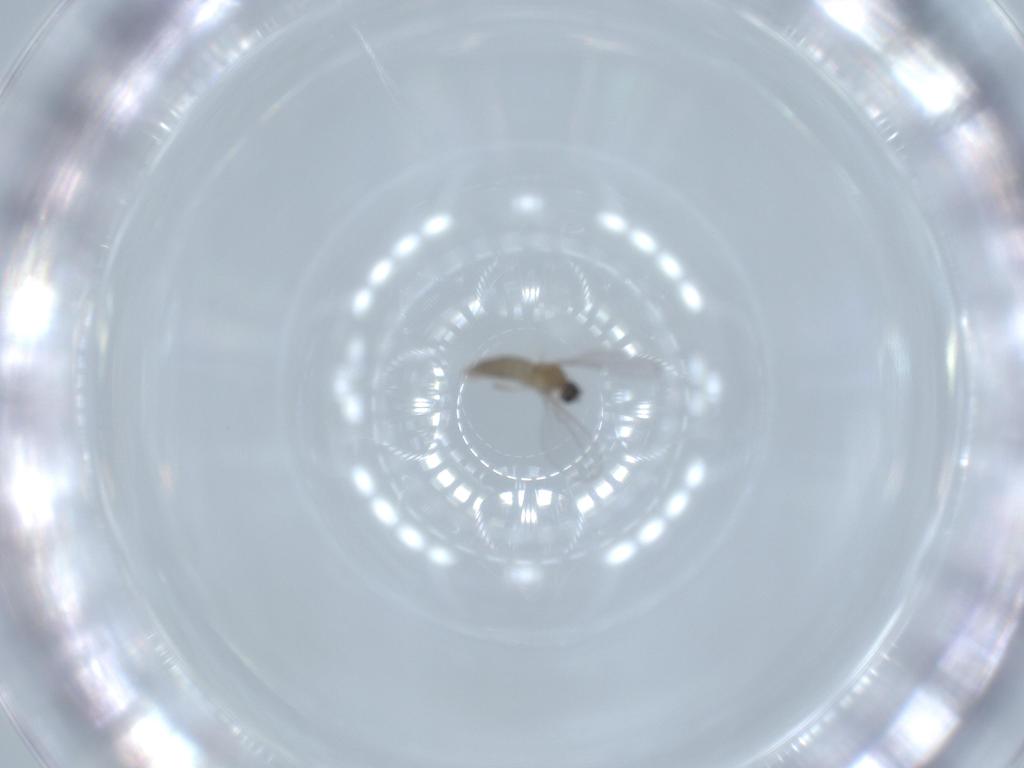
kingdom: Animalia
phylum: Arthropoda
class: Insecta
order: Diptera
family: Cecidomyiidae
